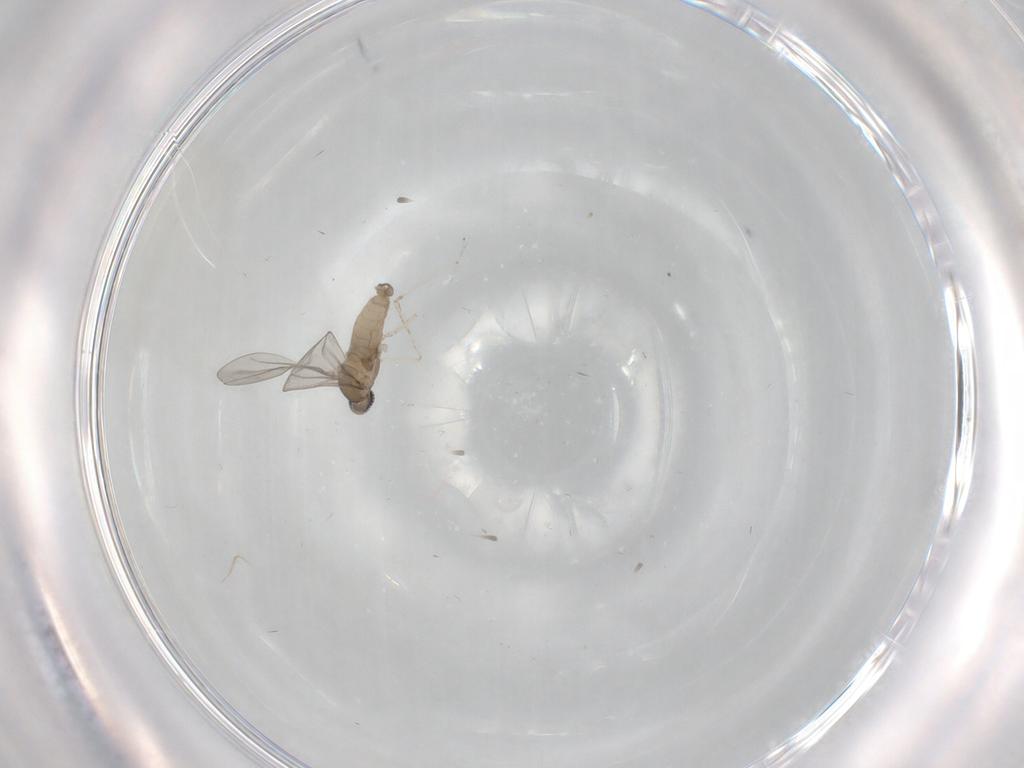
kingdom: Animalia
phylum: Arthropoda
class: Insecta
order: Diptera
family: Cecidomyiidae
